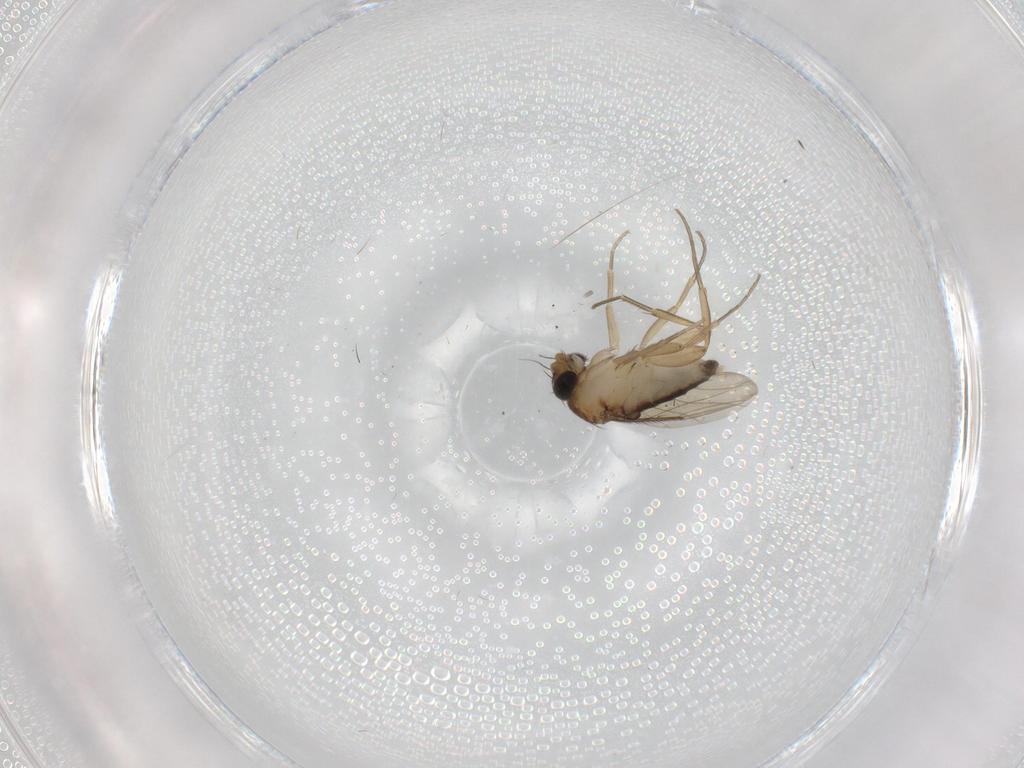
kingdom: Animalia
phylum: Arthropoda
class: Insecta
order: Diptera
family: Phoridae
